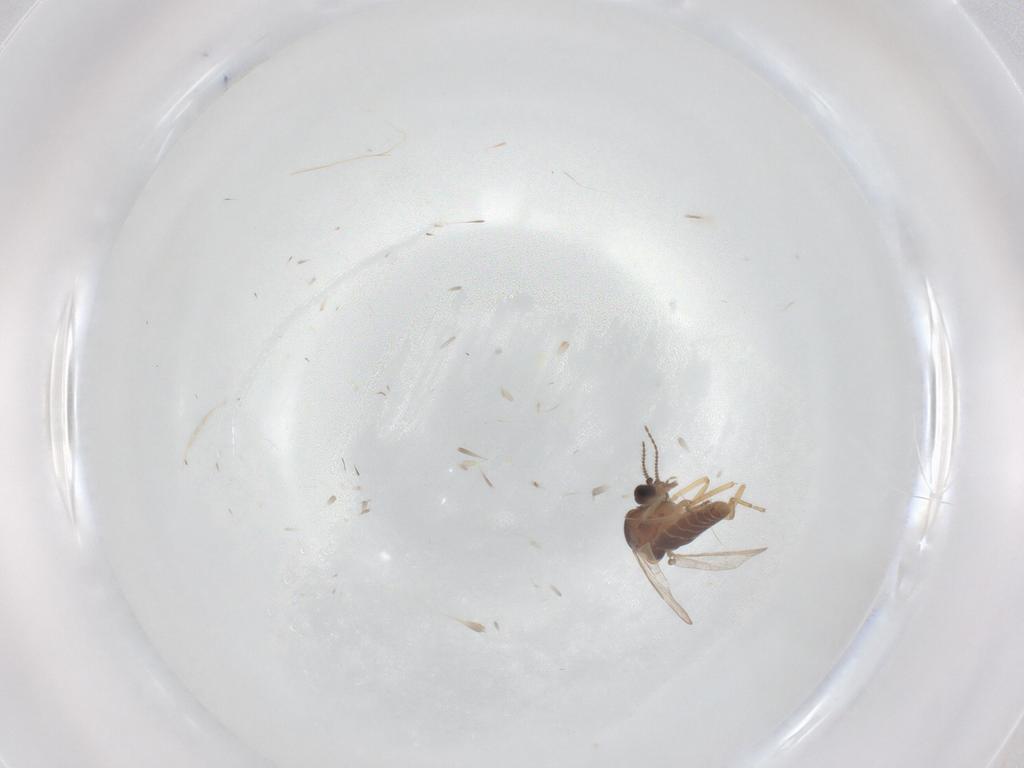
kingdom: Animalia
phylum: Arthropoda
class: Insecta
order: Diptera
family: Ceratopogonidae
